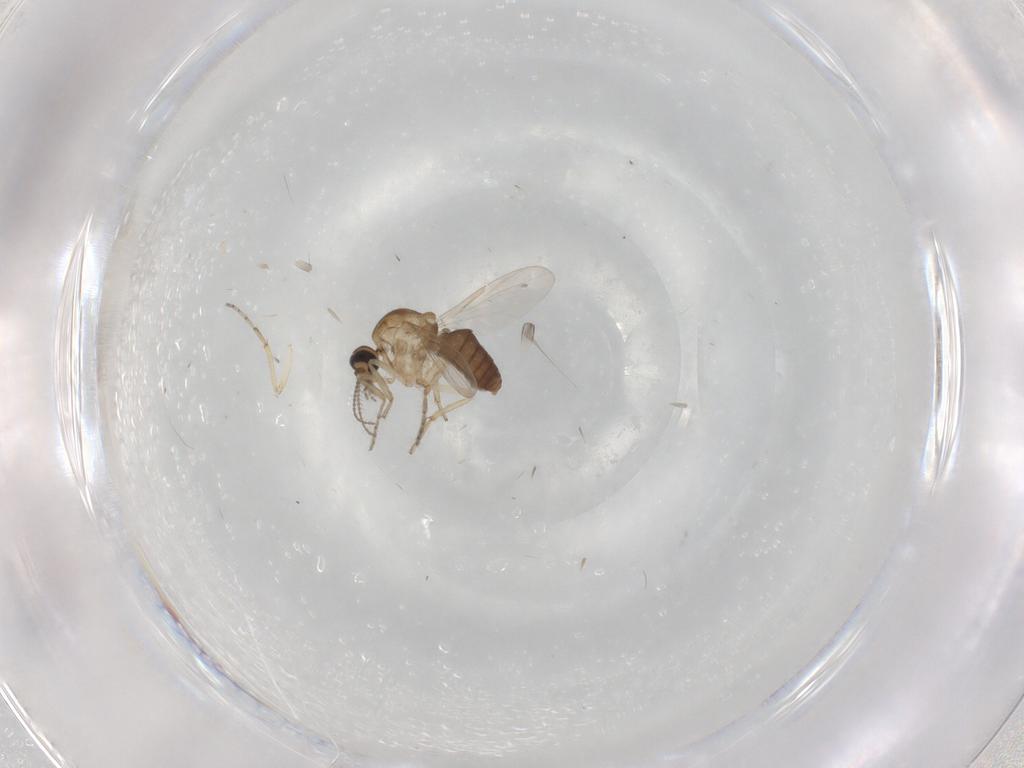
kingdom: Animalia
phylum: Arthropoda
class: Insecta
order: Diptera
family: Ceratopogonidae
